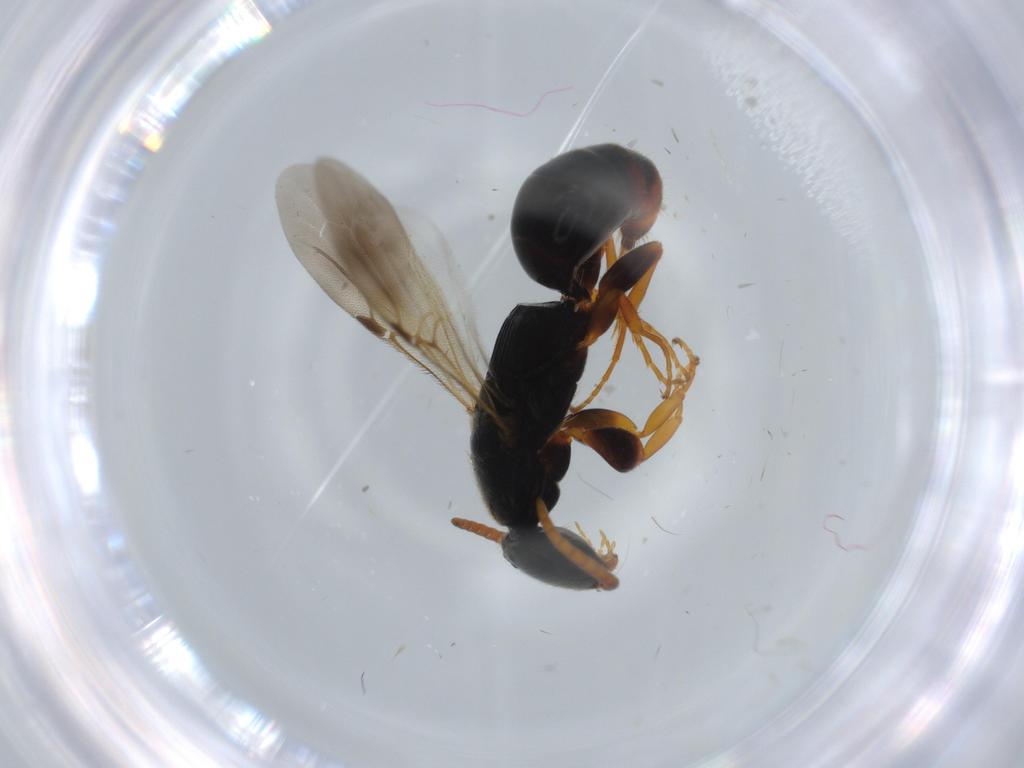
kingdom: Animalia
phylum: Arthropoda
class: Insecta
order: Hymenoptera
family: Bethylidae
